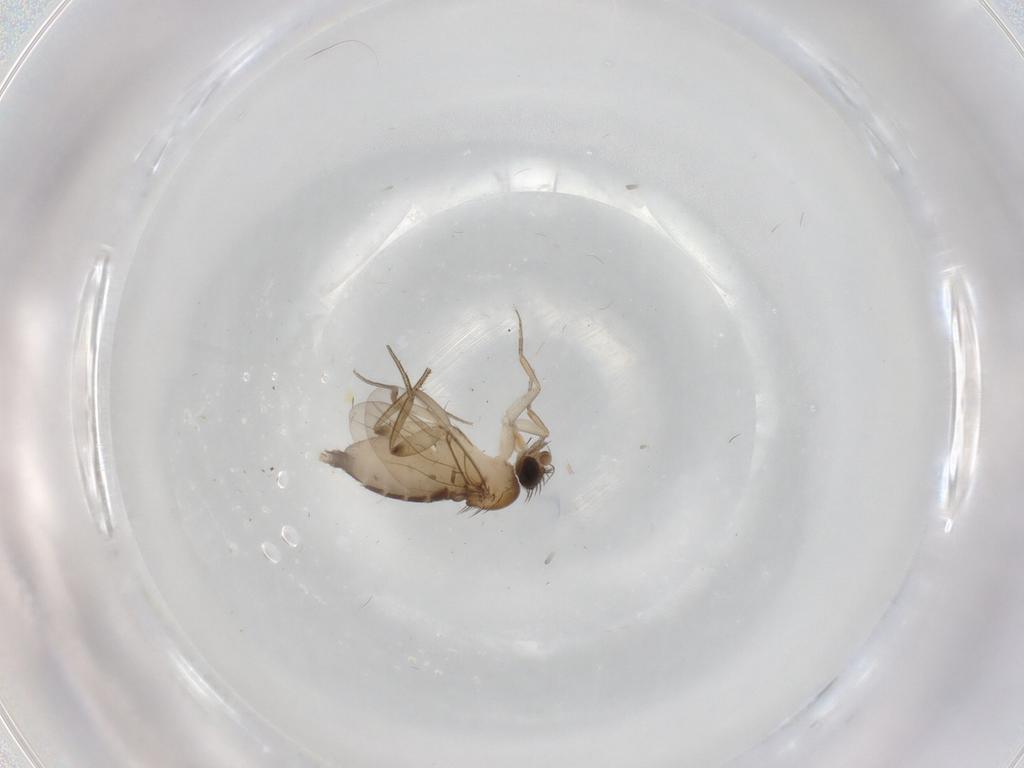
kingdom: Animalia
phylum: Arthropoda
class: Insecta
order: Diptera
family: Phoridae
